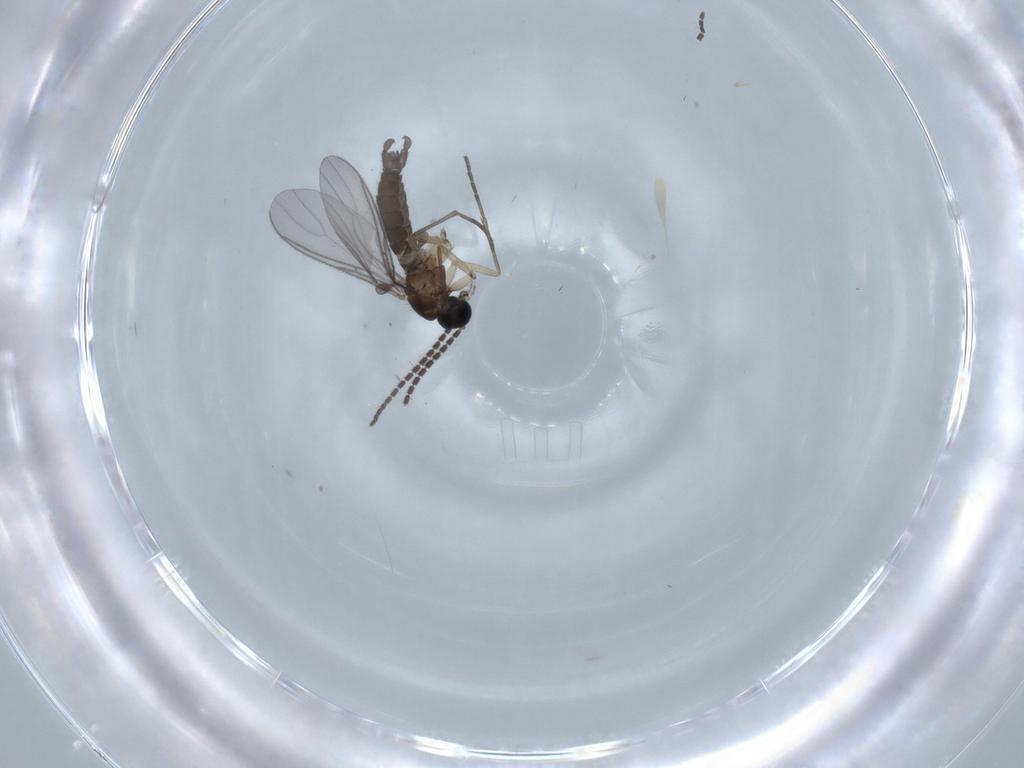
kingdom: Animalia
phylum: Arthropoda
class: Insecta
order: Diptera
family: Sciaridae
